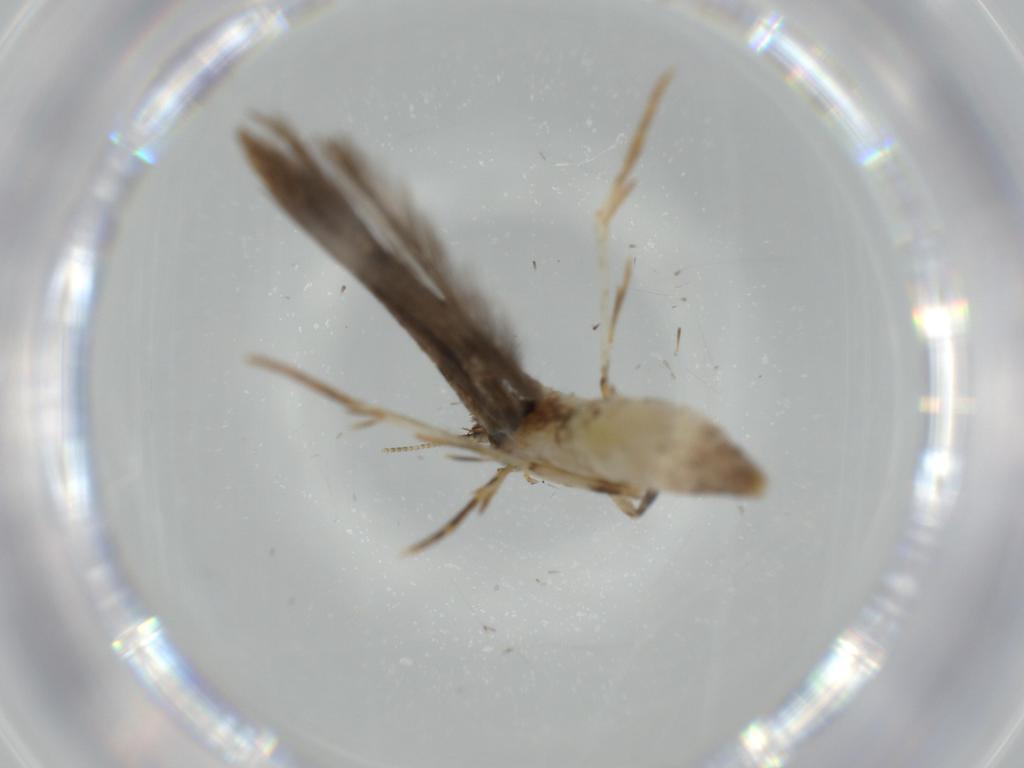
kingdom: Animalia
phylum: Arthropoda
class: Insecta
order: Lepidoptera
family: Tineidae
